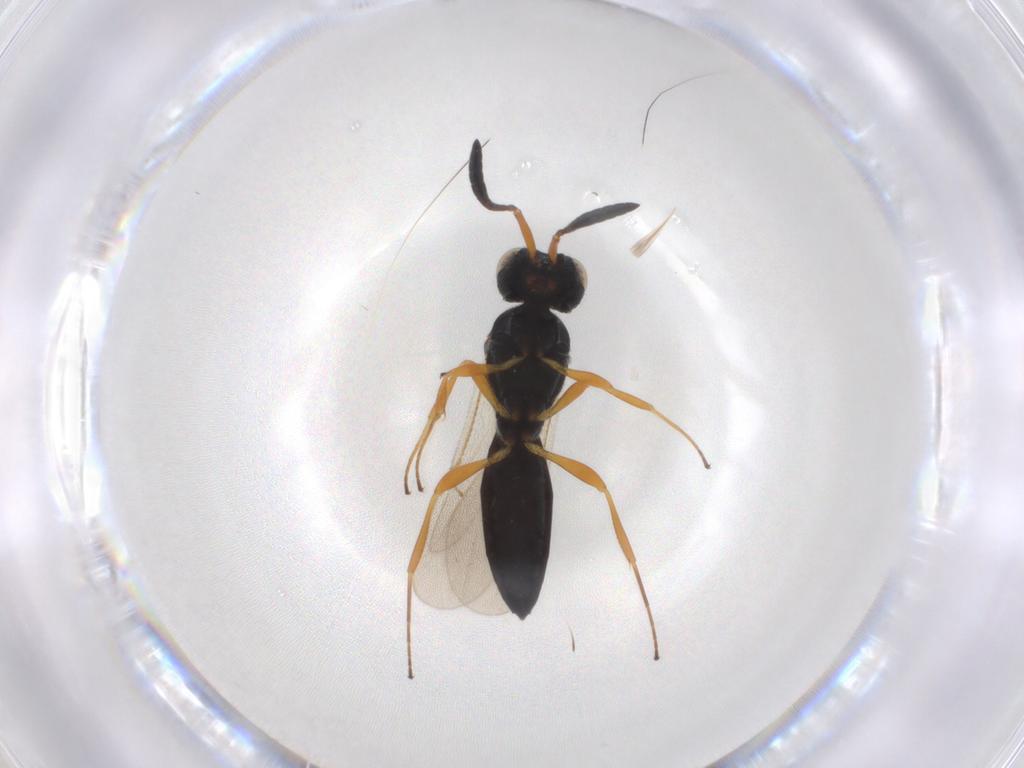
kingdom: Animalia
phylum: Arthropoda
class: Insecta
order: Hymenoptera
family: Scelionidae
